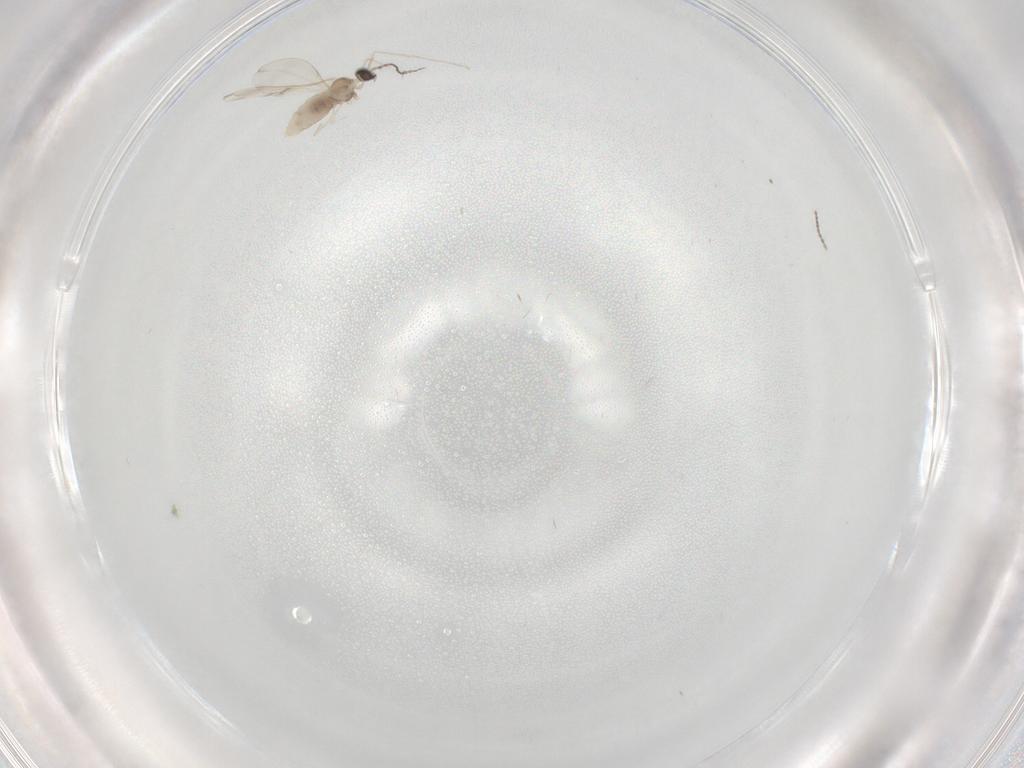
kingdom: Animalia
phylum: Arthropoda
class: Insecta
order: Diptera
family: Cecidomyiidae
